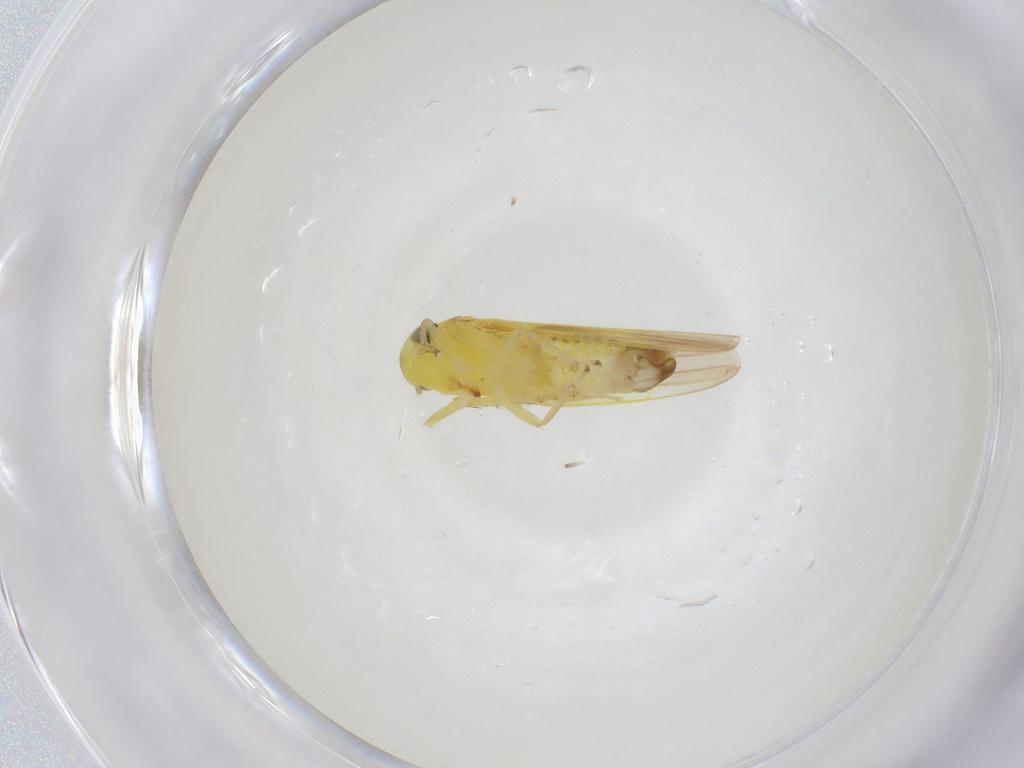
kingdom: Animalia
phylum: Arthropoda
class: Insecta
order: Hemiptera
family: Cicadellidae
